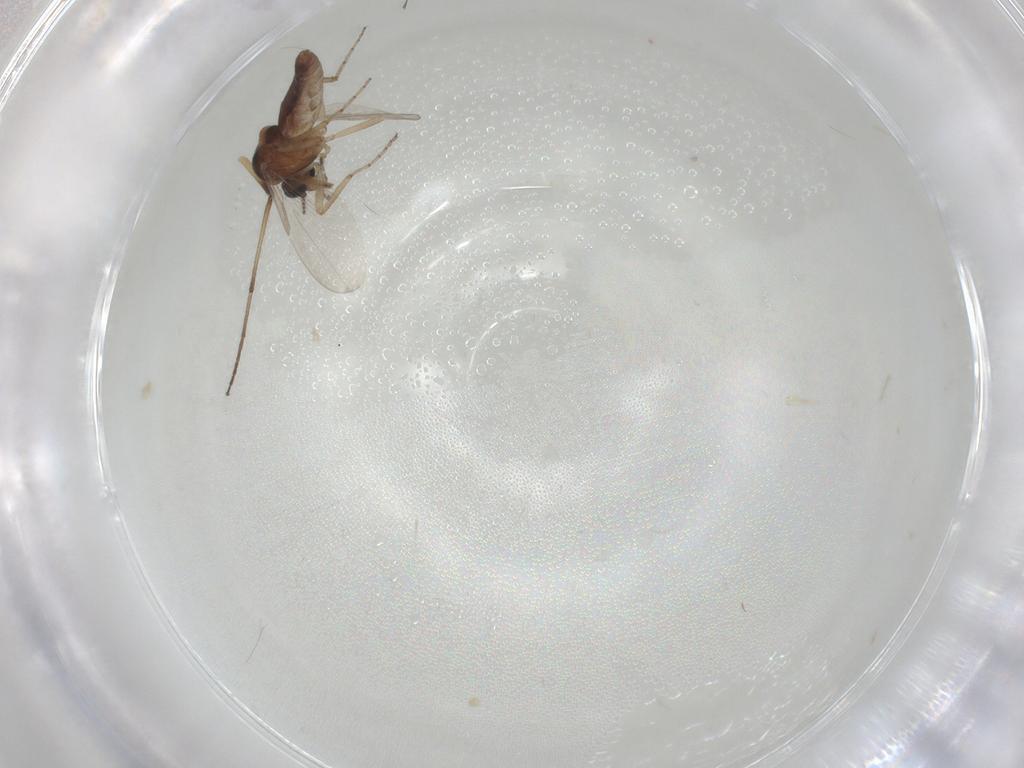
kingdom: Animalia
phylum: Arthropoda
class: Insecta
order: Diptera
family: Ceratopogonidae
